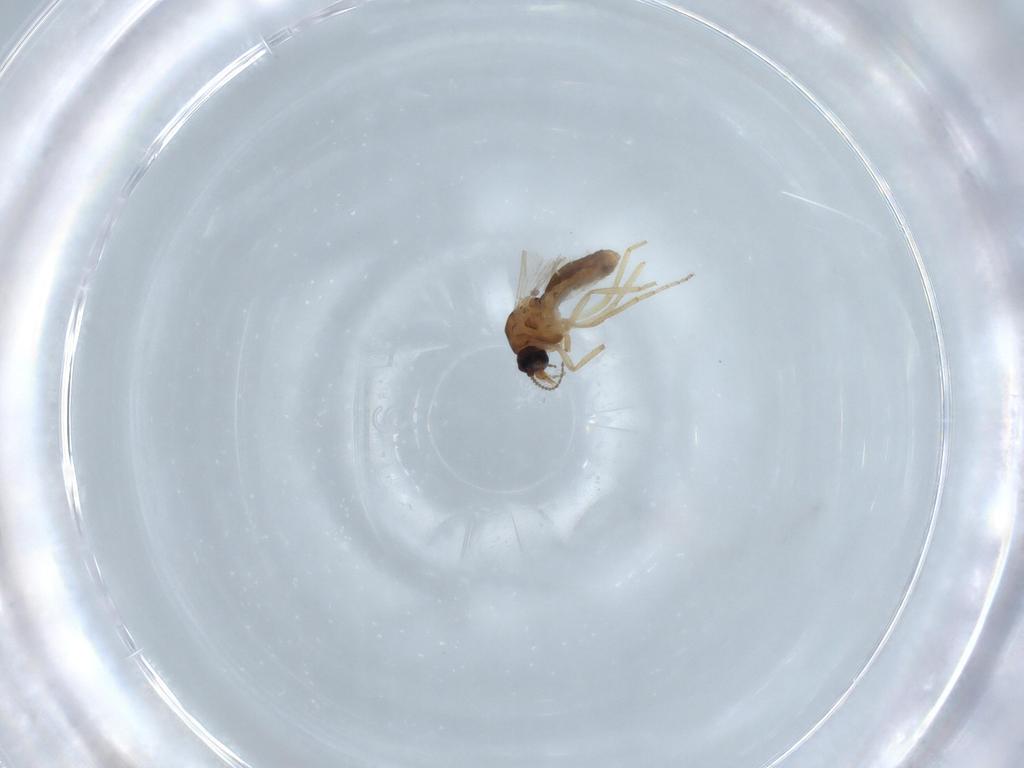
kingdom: Animalia
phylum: Arthropoda
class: Insecta
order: Diptera
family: Ceratopogonidae
